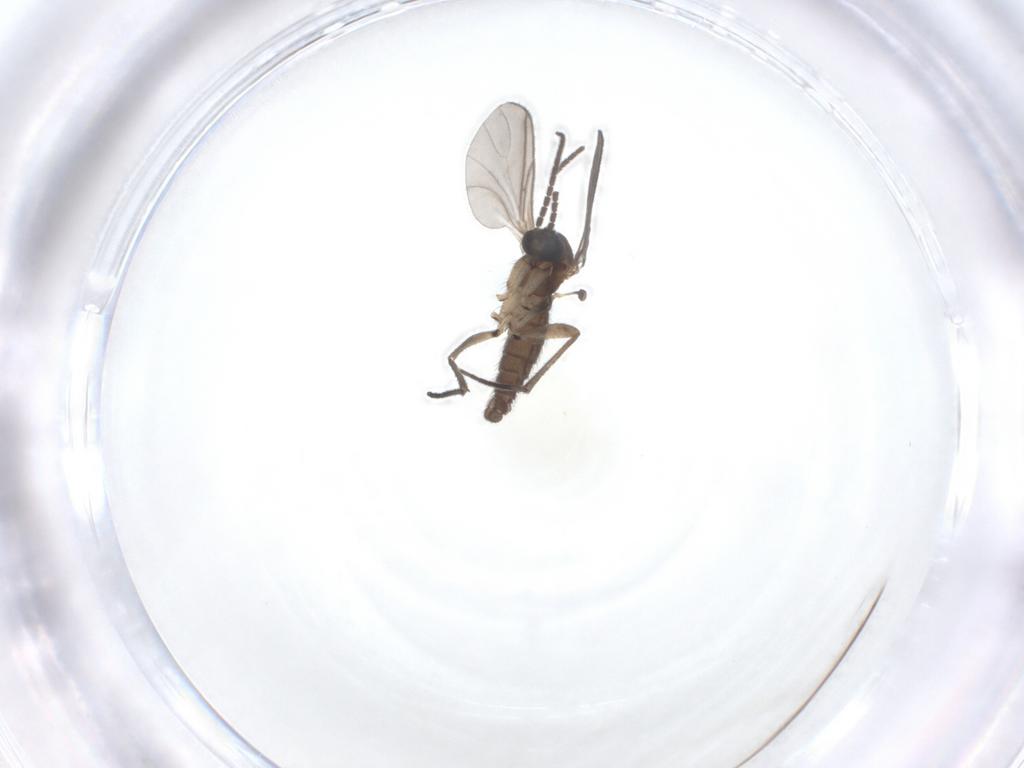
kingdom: Animalia
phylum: Arthropoda
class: Insecta
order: Diptera
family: Sciaridae
